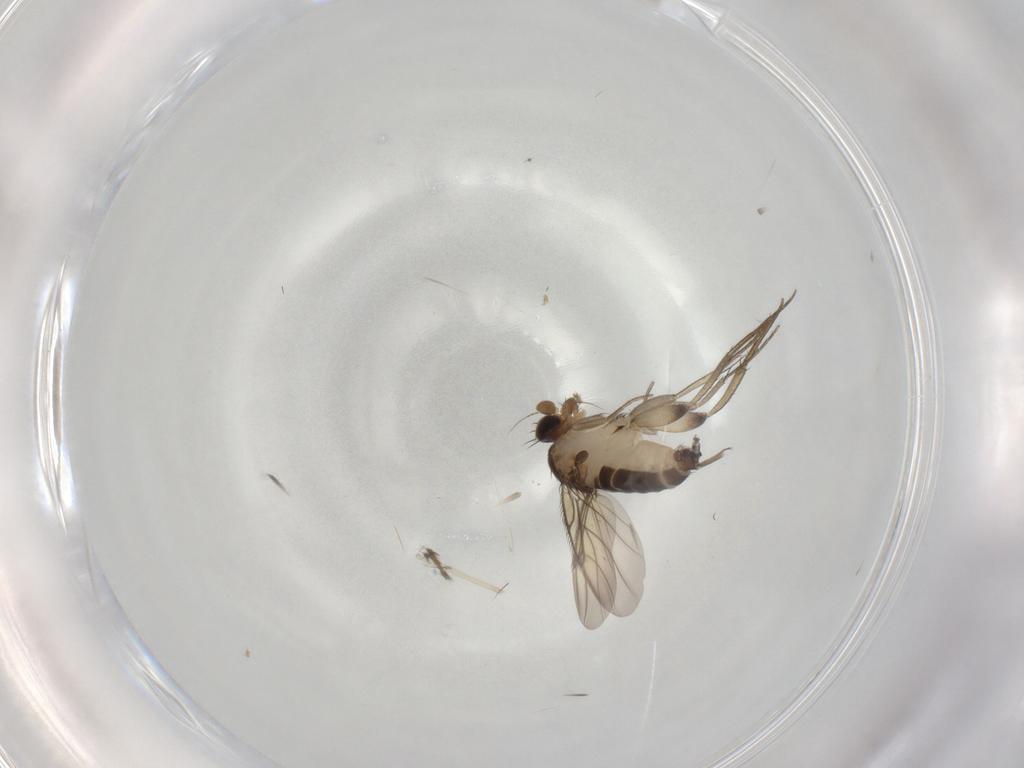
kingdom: Animalia
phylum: Arthropoda
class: Insecta
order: Diptera
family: Phoridae
